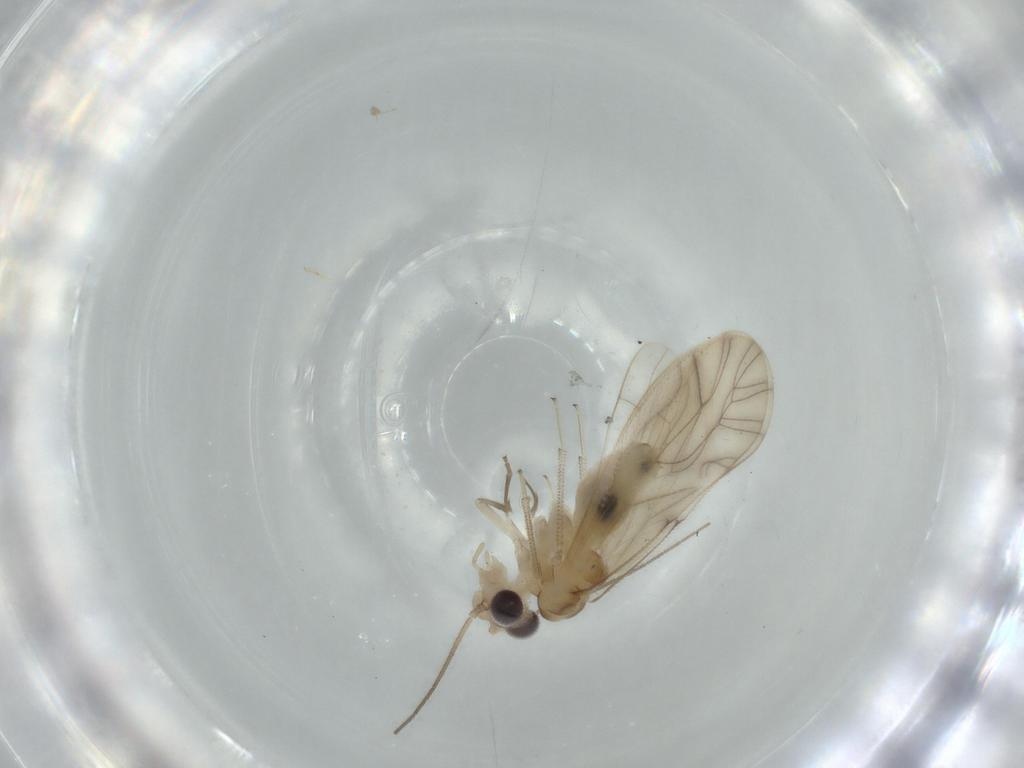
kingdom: Animalia
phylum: Arthropoda
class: Insecta
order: Psocodea
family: Caeciliusidae
